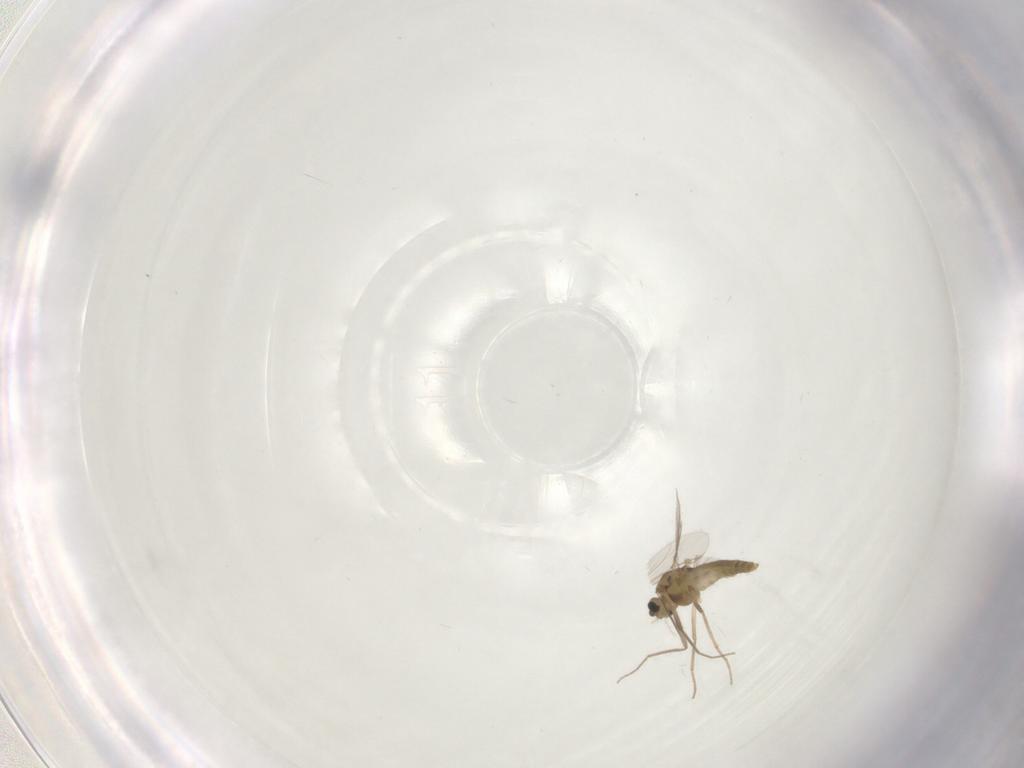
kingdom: Animalia
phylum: Arthropoda
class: Insecta
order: Diptera
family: Chironomidae
